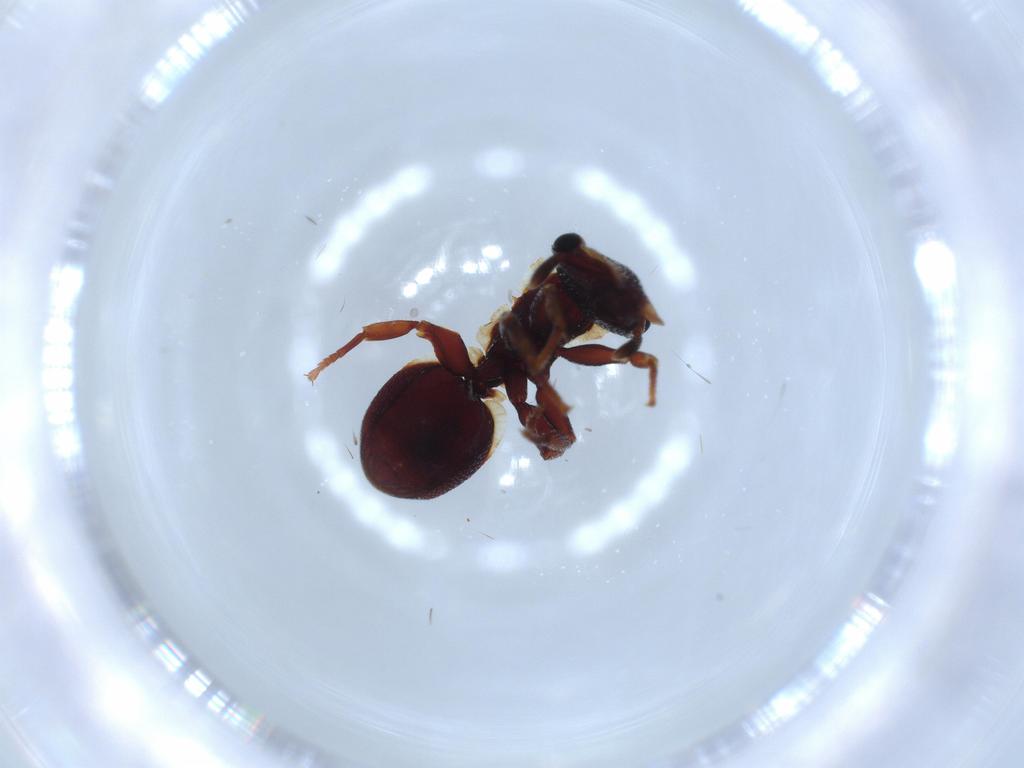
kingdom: Animalia
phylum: Arthropoda
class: Insecta
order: Hymenoptera
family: Formicidae
